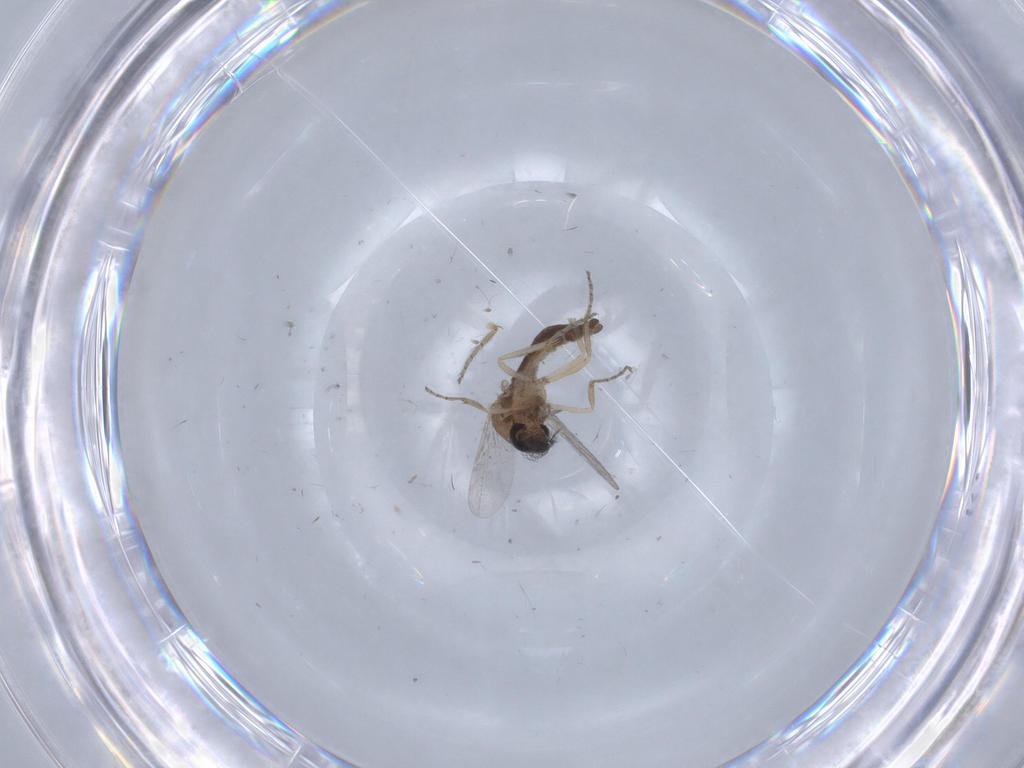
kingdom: Animalia
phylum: Arthropoda
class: Insecta
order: Diptera
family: Ceratopogonidae
